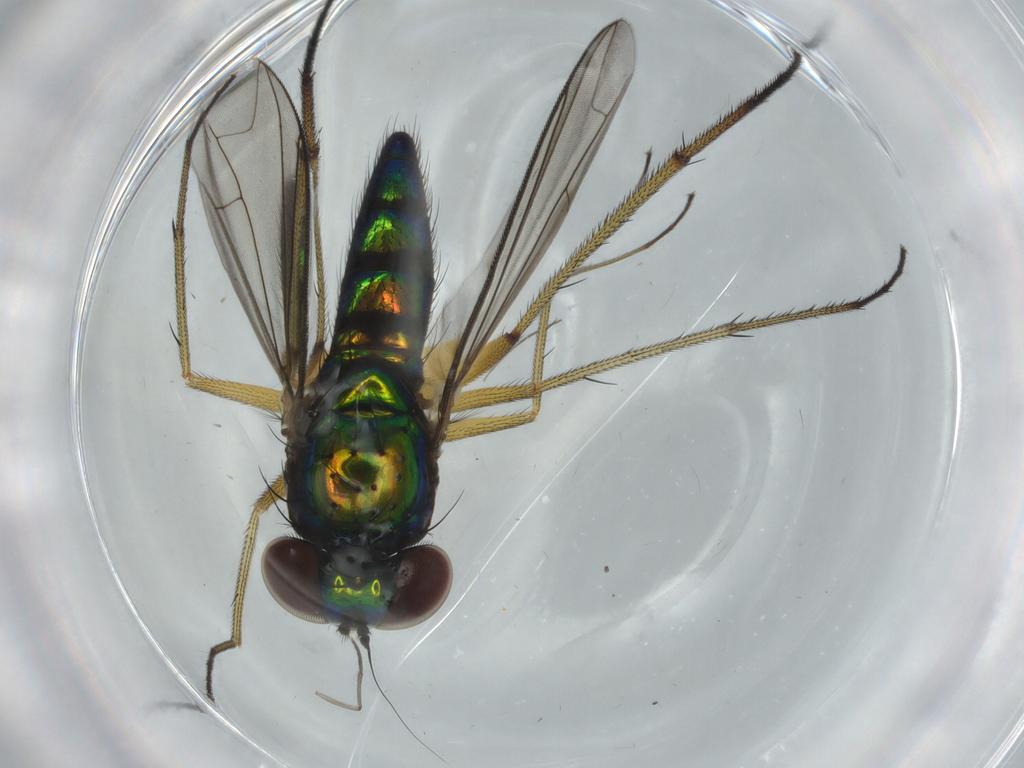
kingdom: Animalia
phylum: Arthropoda
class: Insecta
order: Diptera
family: Dolichopodidae
